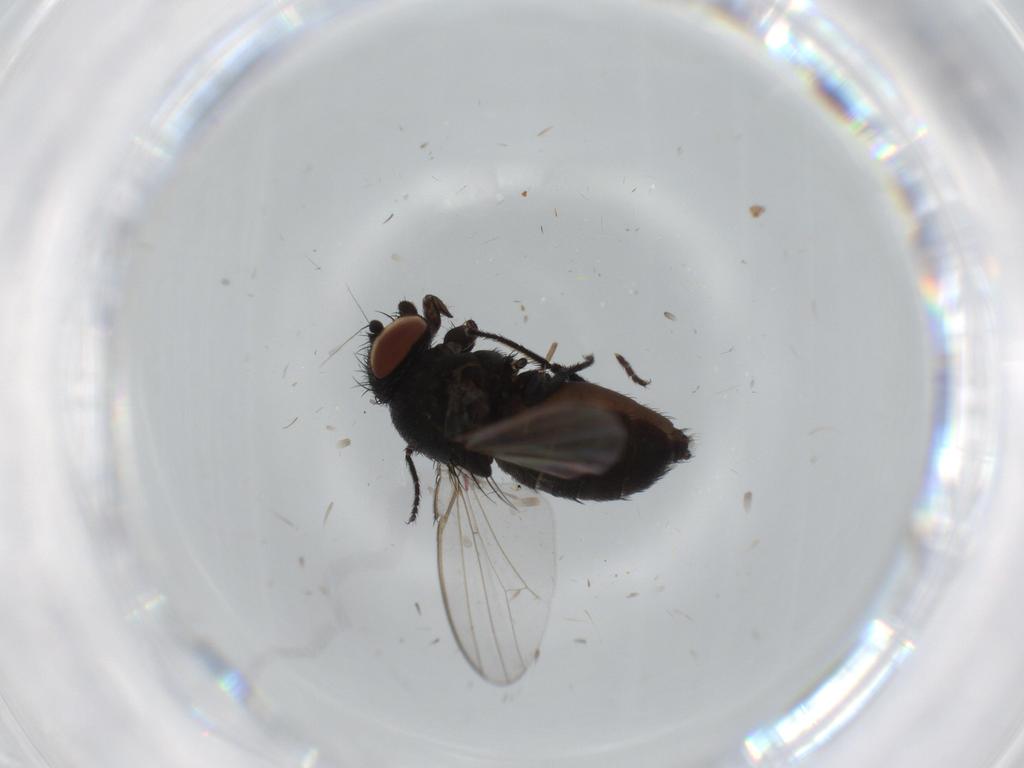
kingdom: Animalia
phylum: Arthropoda
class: Insecta
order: Diptera
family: Milichiidae
